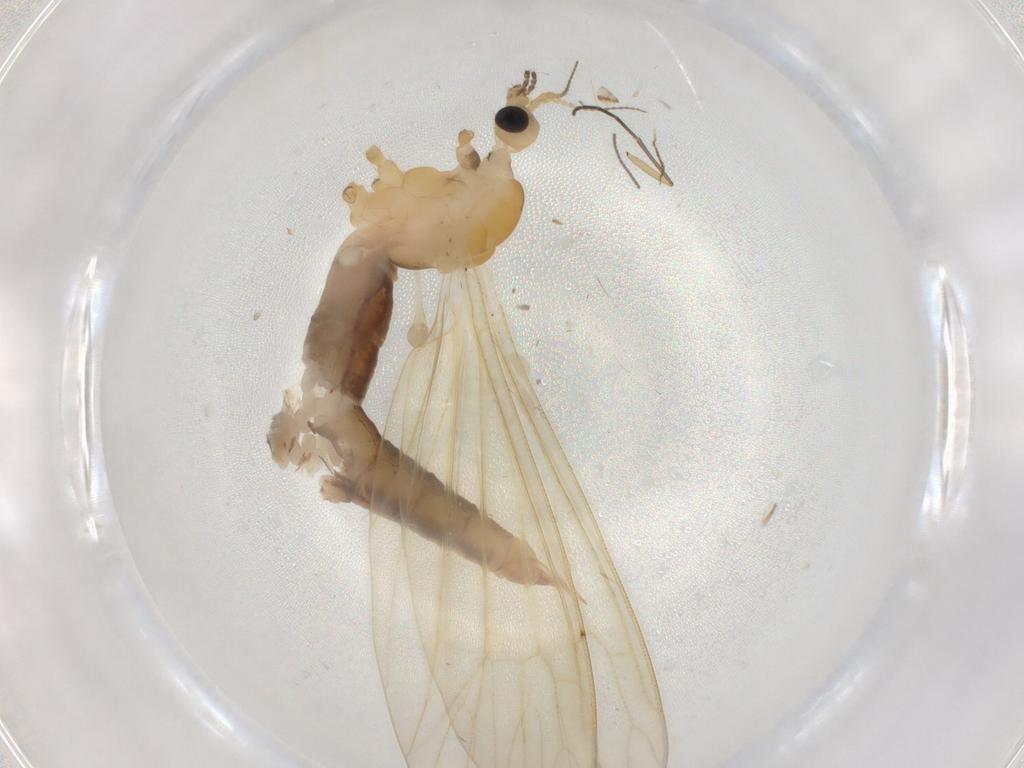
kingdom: Animalia
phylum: Arthropoda
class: Insecta
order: Diptera
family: Limoniidae
